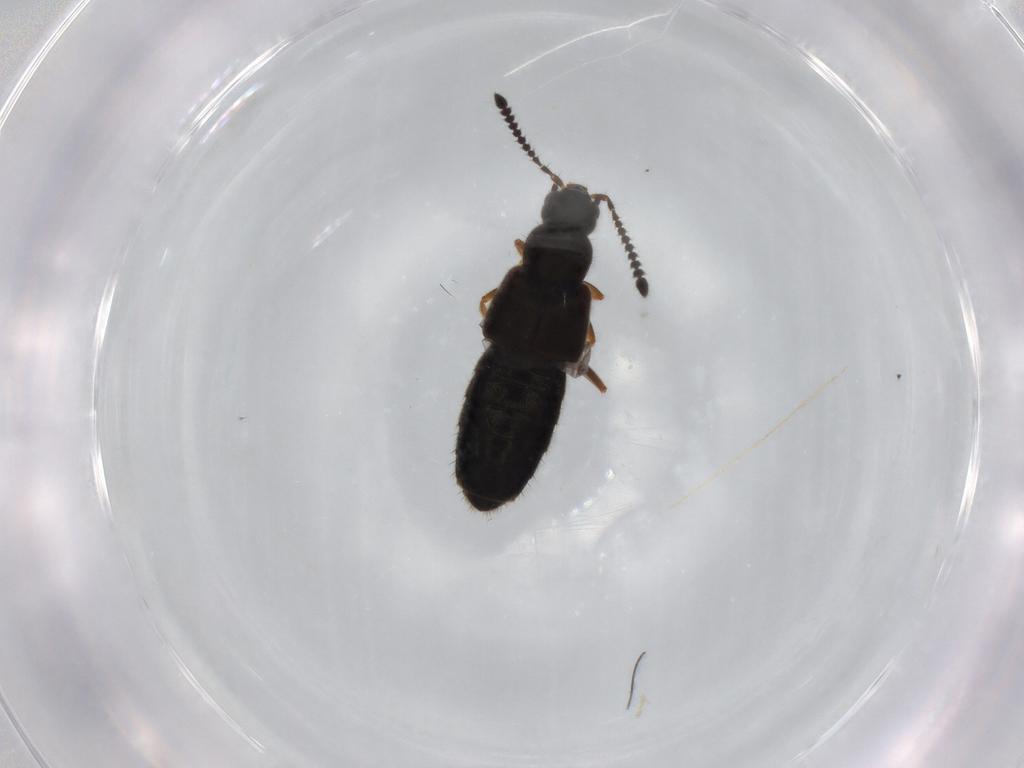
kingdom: Animalia
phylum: Arthropoda
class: Insecta
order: Coleoptera
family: Staphylinidae
